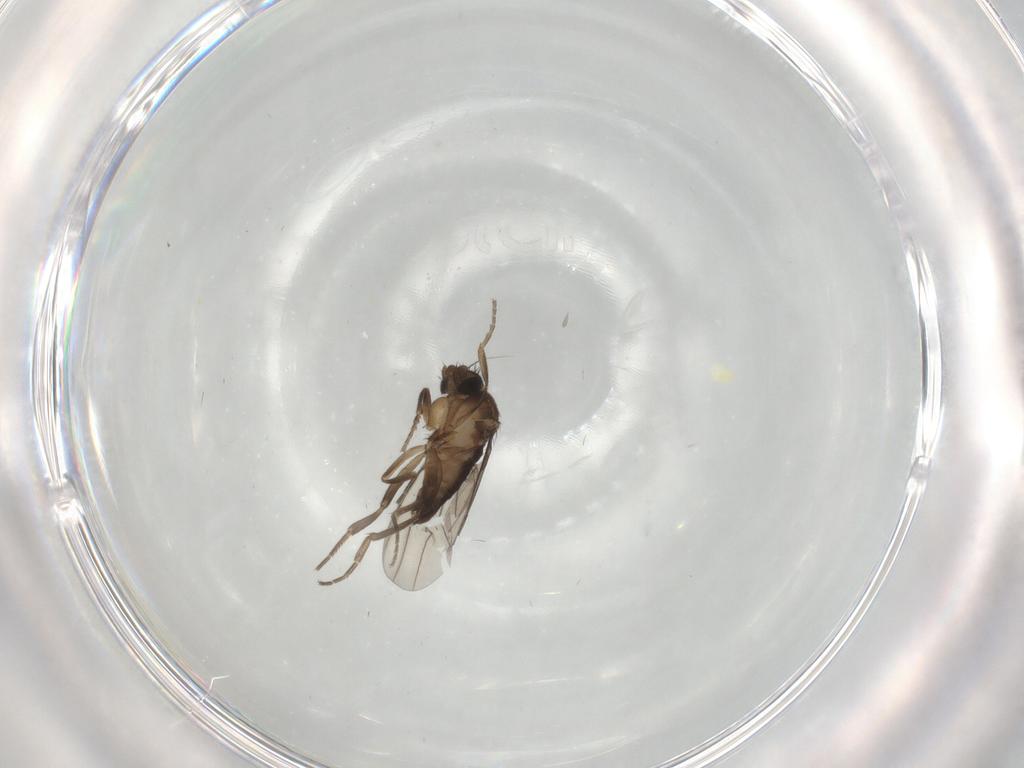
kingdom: Animalia
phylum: Arthropoda
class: Insecta
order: Diptera
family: Phoridae
